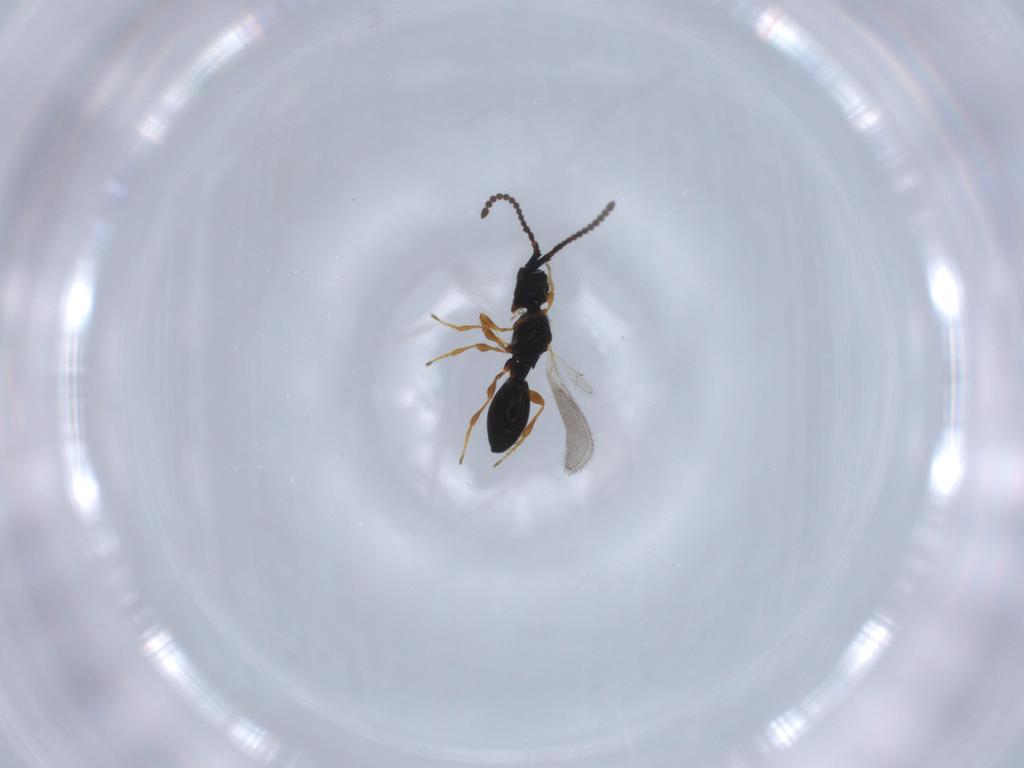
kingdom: Animalia
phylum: Arthropoda
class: Insecta
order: Hymenoptera
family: Diapriidae
